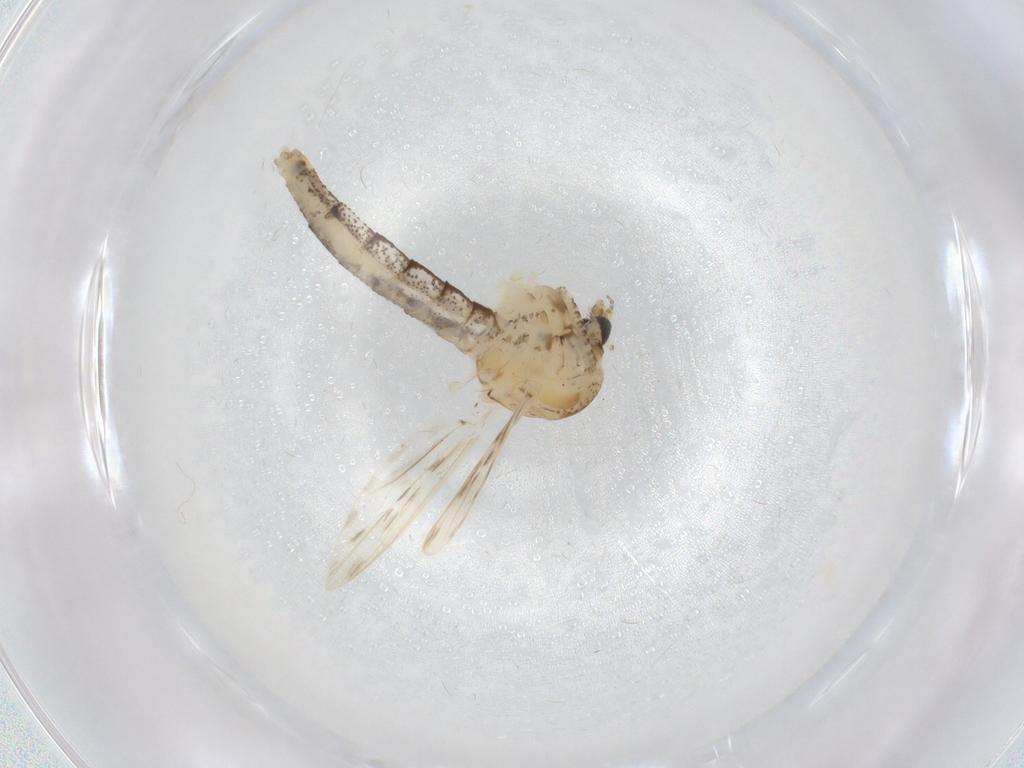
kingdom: Animalia
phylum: Arthropoda
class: Insecta
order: Diptera
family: Chaoboridae
